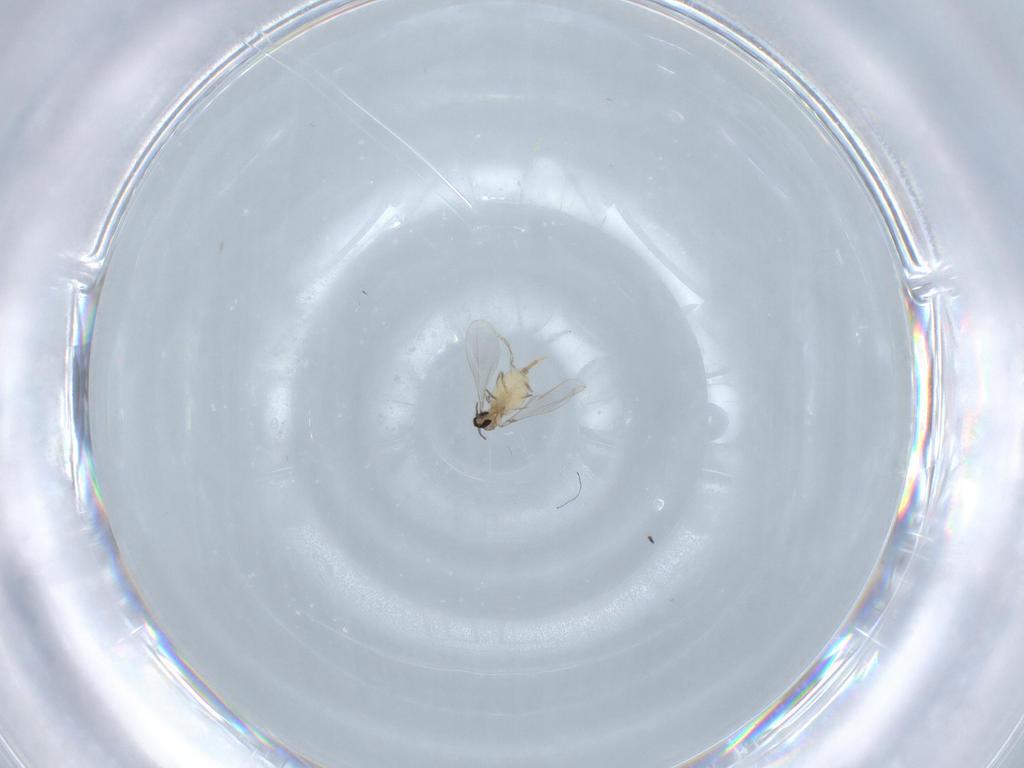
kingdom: Animalia
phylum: Arthropoda
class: Insecta
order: Diptera
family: Cecidomyiidae
